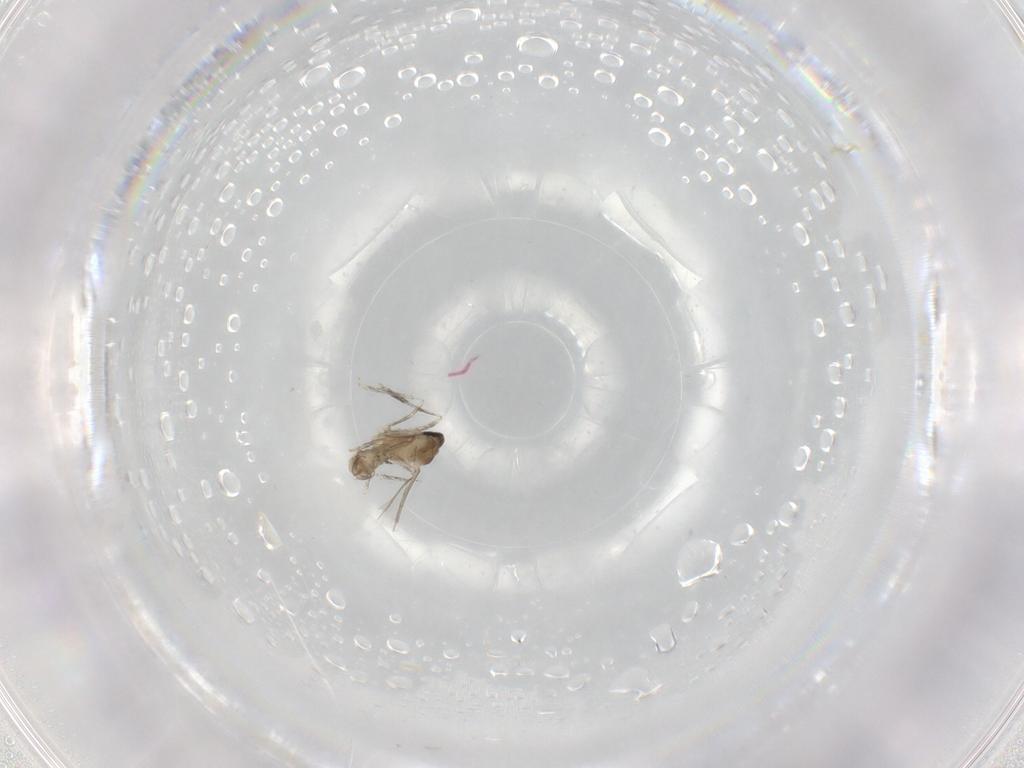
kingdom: Animalia
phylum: Arthropoda
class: Insecta
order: Diptera
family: Cecidomyiidae
